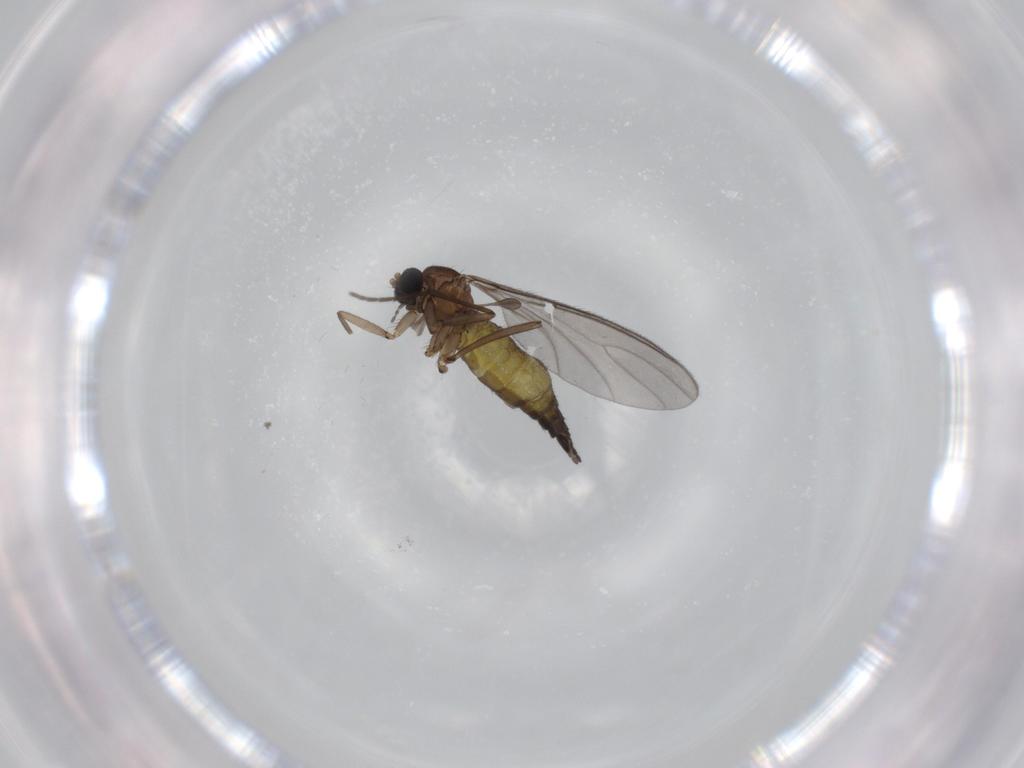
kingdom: Animalia
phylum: Arthropoda
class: Insecta
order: Diptera
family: Sciaridae
